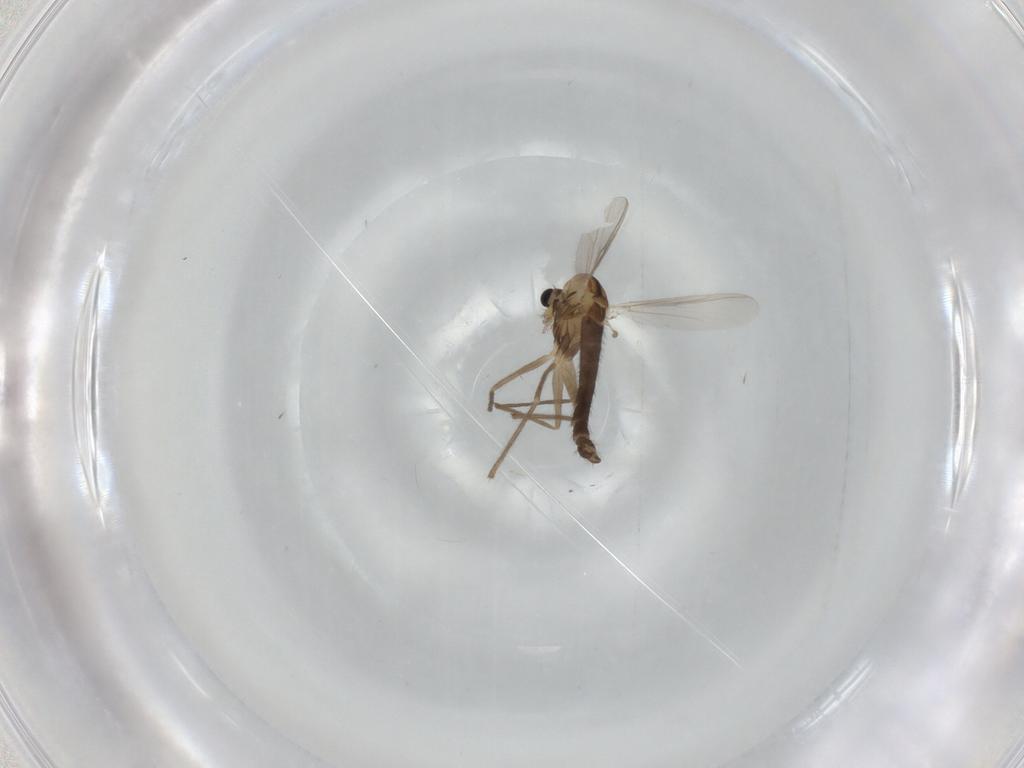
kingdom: Animalia
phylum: Arthropoda
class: Insecta
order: Diptera
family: Chironomidae
